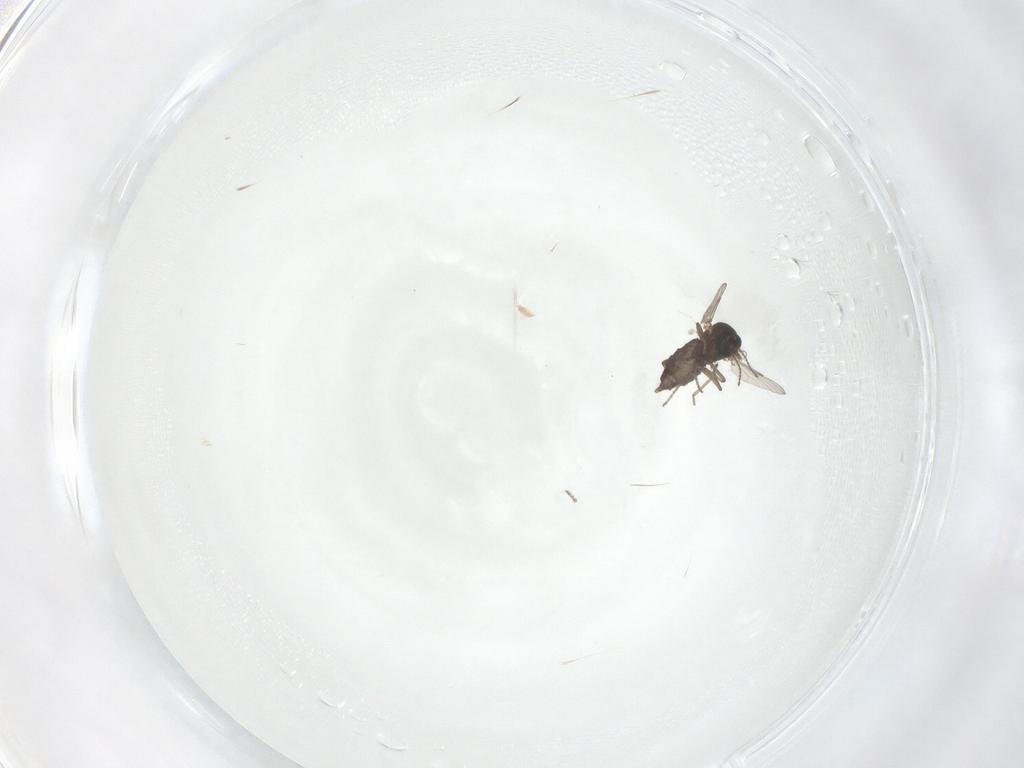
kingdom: Animalia
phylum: Arthropoda
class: Insecta
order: Diptera
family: Ceratopogonidae
